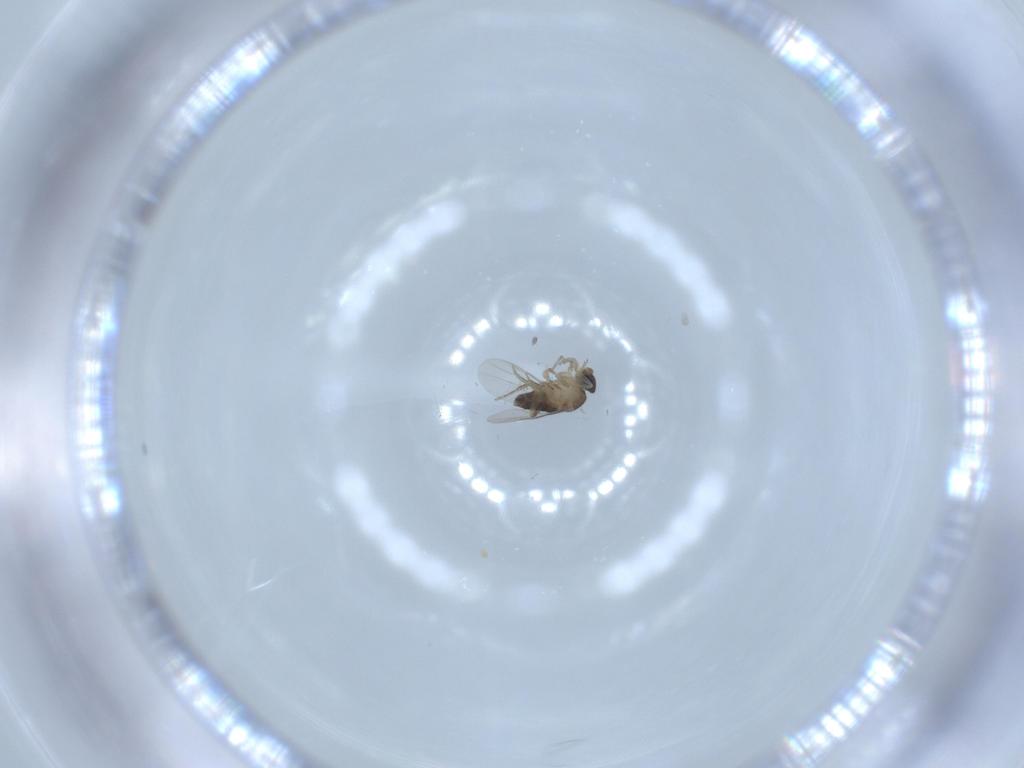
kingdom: Animalia
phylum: Arthropoda
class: Insecta
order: Diptera
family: Phoridae
